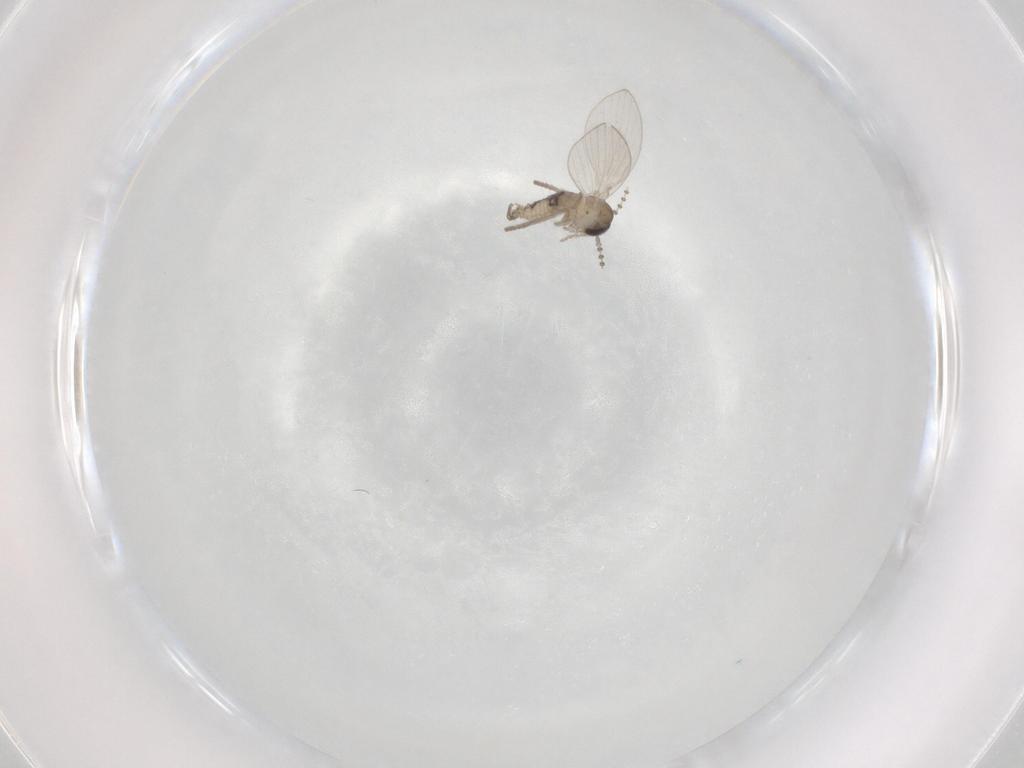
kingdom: Animalia
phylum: Arthropoda
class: Insecta
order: Diptera
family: Psychodidae
